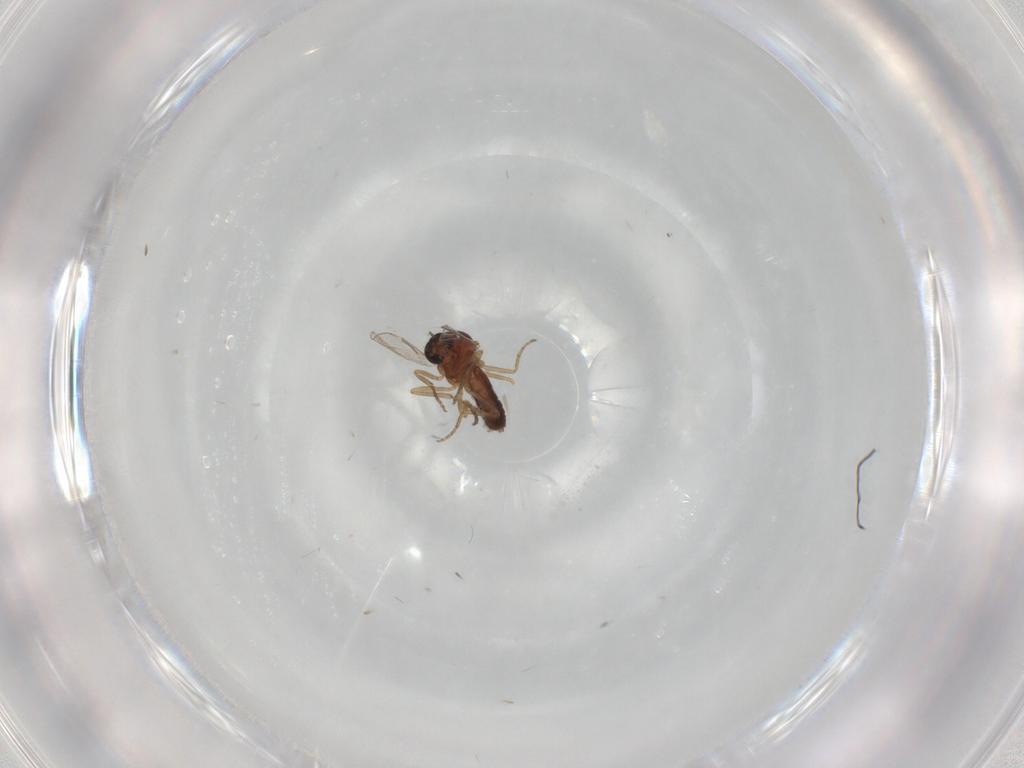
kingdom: Animalia
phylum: Arthropoda
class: Insecta
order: Diptera
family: Ceratopogonidae
